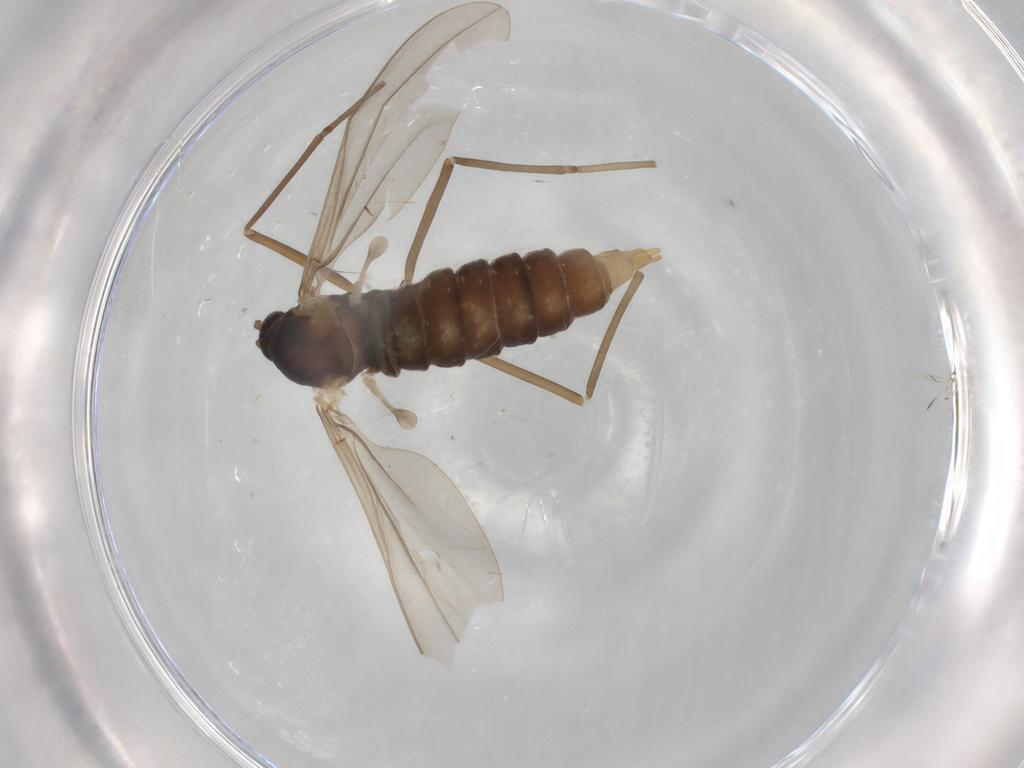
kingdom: Animalia
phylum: Arthropoda
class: Insecta
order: Diptera
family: Cecidomyiidae
